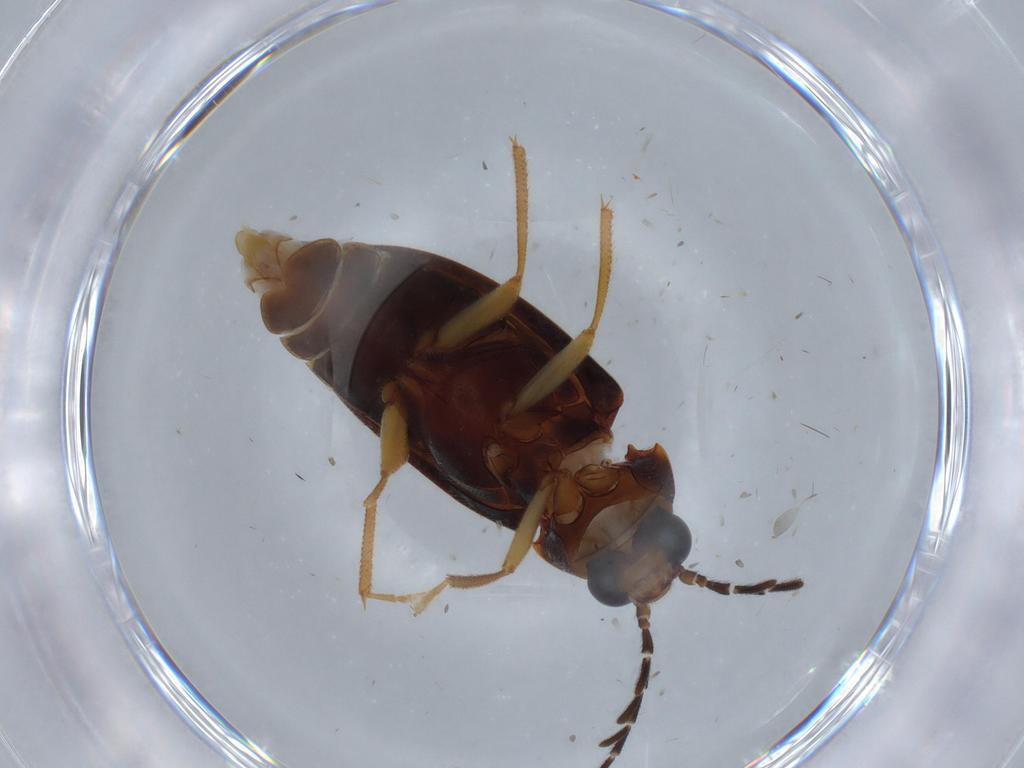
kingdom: Animalia
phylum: Arthropoda
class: Insecta
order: Coleoptera
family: Ptilodactylidae
